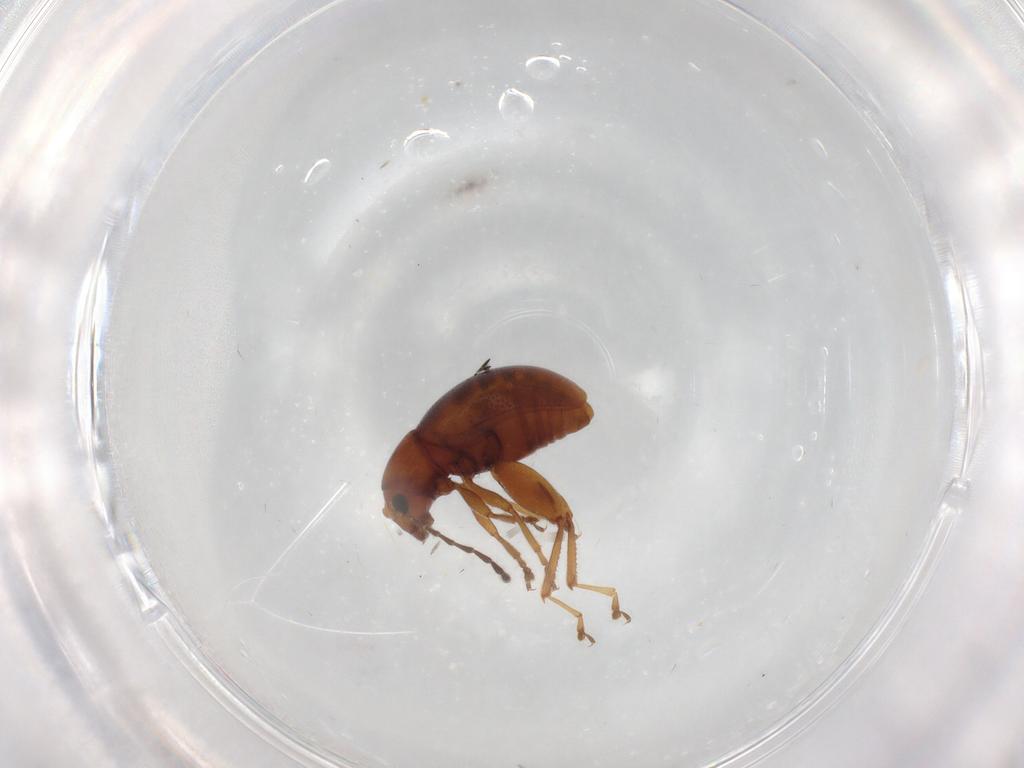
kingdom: Animalia
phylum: Arthropoda
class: Insecta
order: Coleoptera
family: Chrysomelidae
